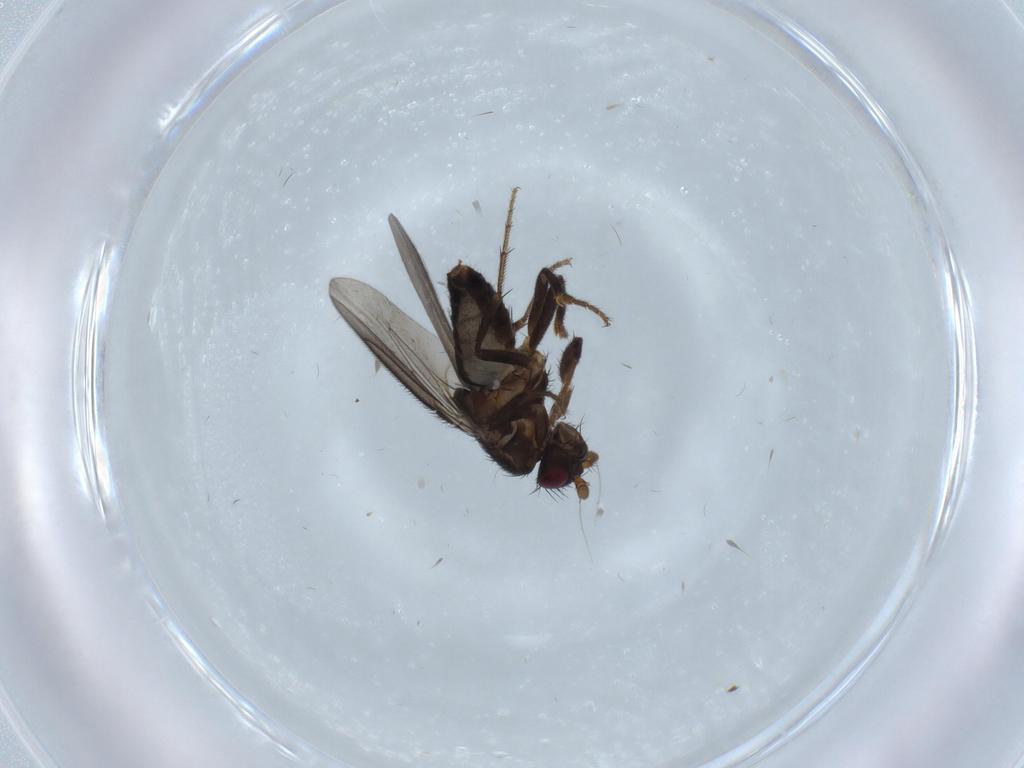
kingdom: Animalia
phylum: Arthropoda
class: Insecta
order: Diptera
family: Sphaeroceridae
